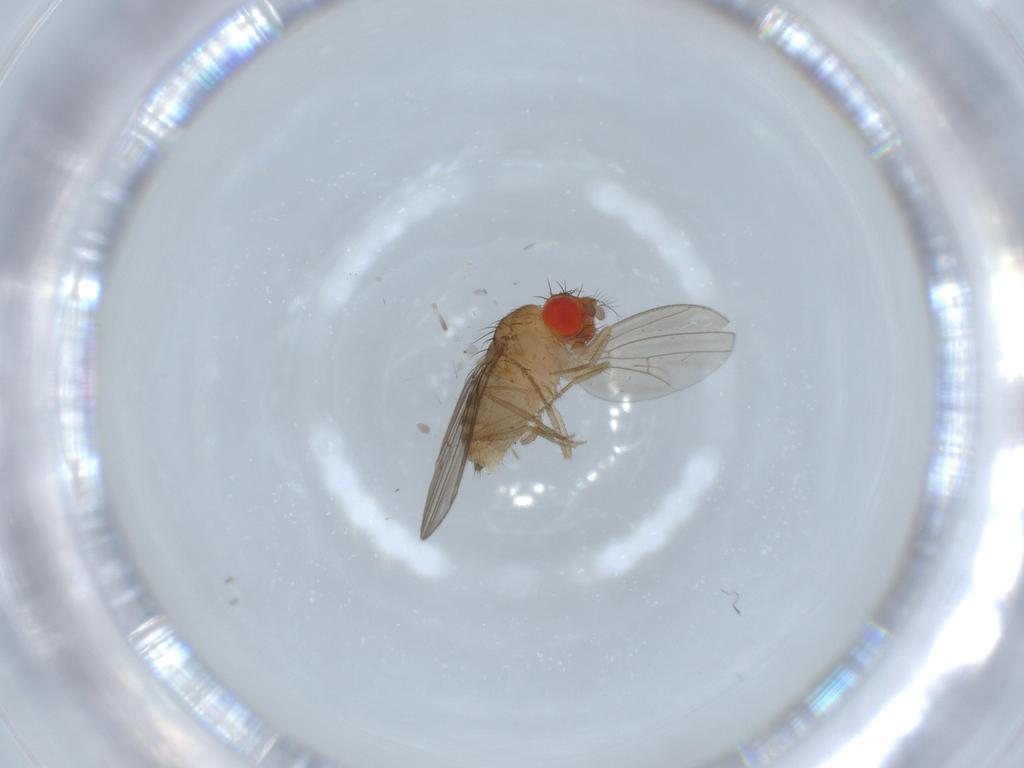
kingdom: Animalia
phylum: Arthropoda
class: Insecta
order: Diptera
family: Drosophilidae
